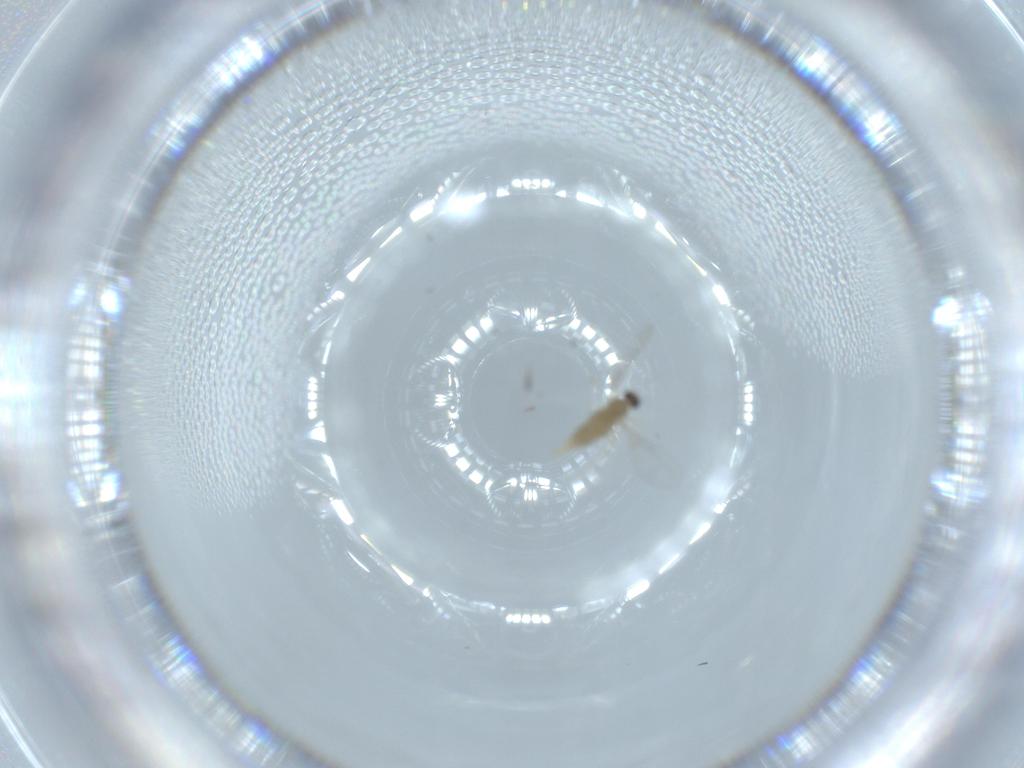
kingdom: Animalia
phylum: Arthropoda
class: Insecta
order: Diptera
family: Cecidomyiidae
